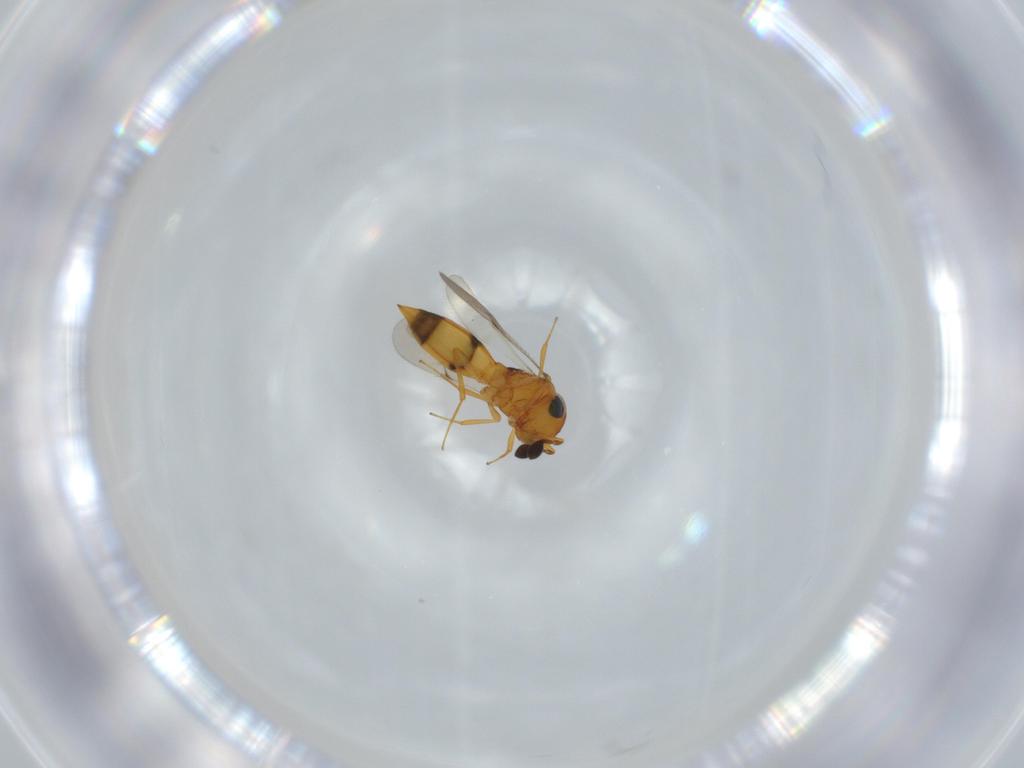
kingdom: Animalia
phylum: Arthropoda
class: Insecta
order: Hymenoptera
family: Scelionidae
